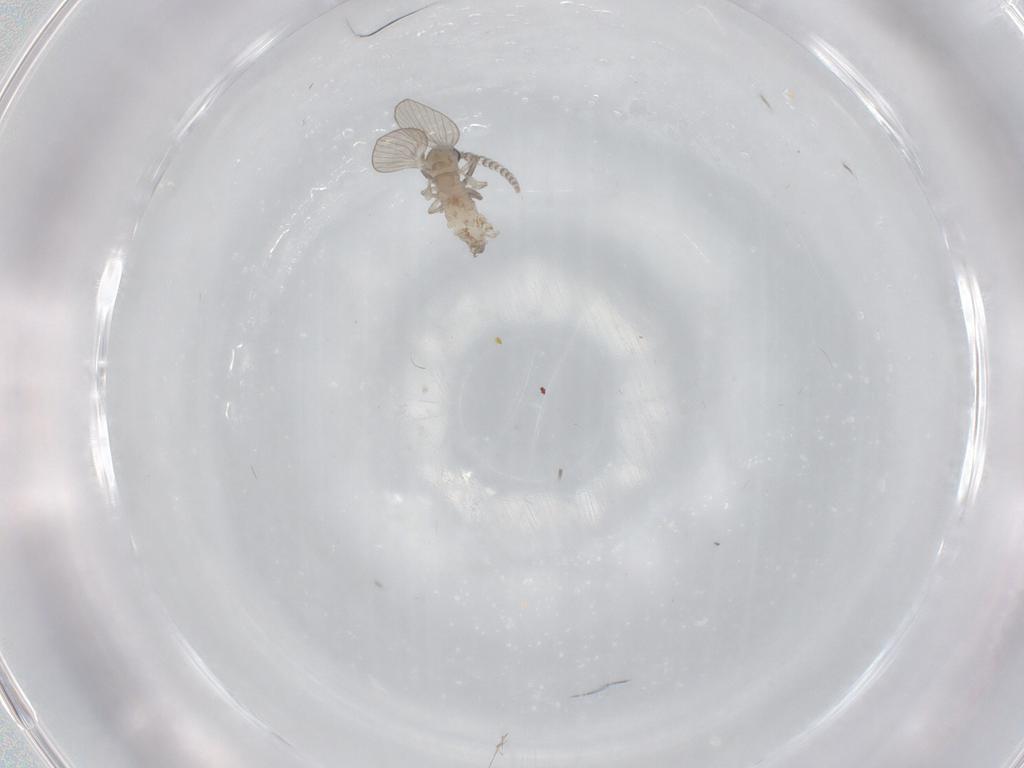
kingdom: Animalia
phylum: Arthropoda
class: Insecta
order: Diptera
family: Psychodidae
